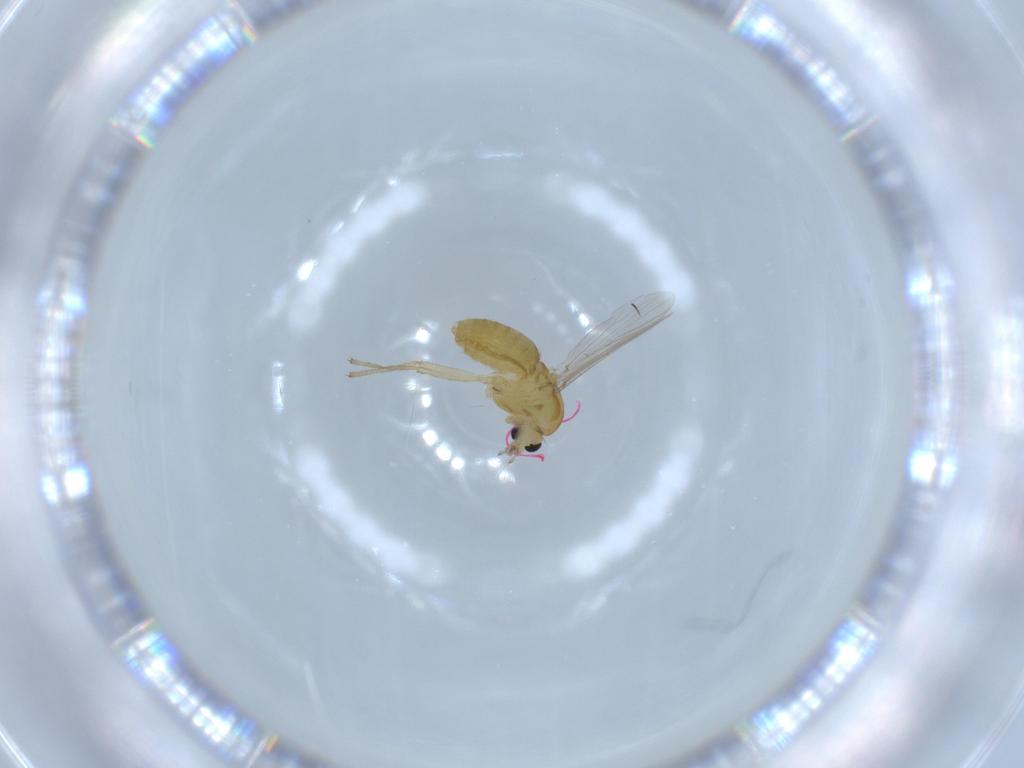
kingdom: Animalia
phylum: Arthropoda
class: Insecta
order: Diptera
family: Chironomidae
